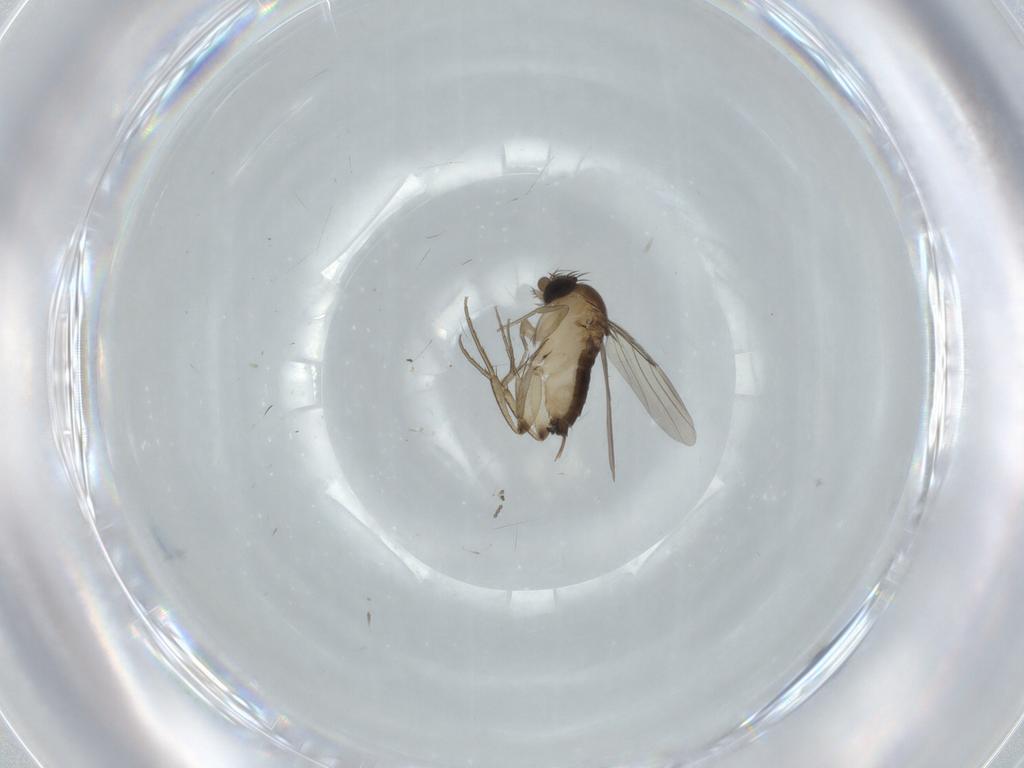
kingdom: Animalia
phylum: Arthropoda
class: Insecta
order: Diptera
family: Phoridae
